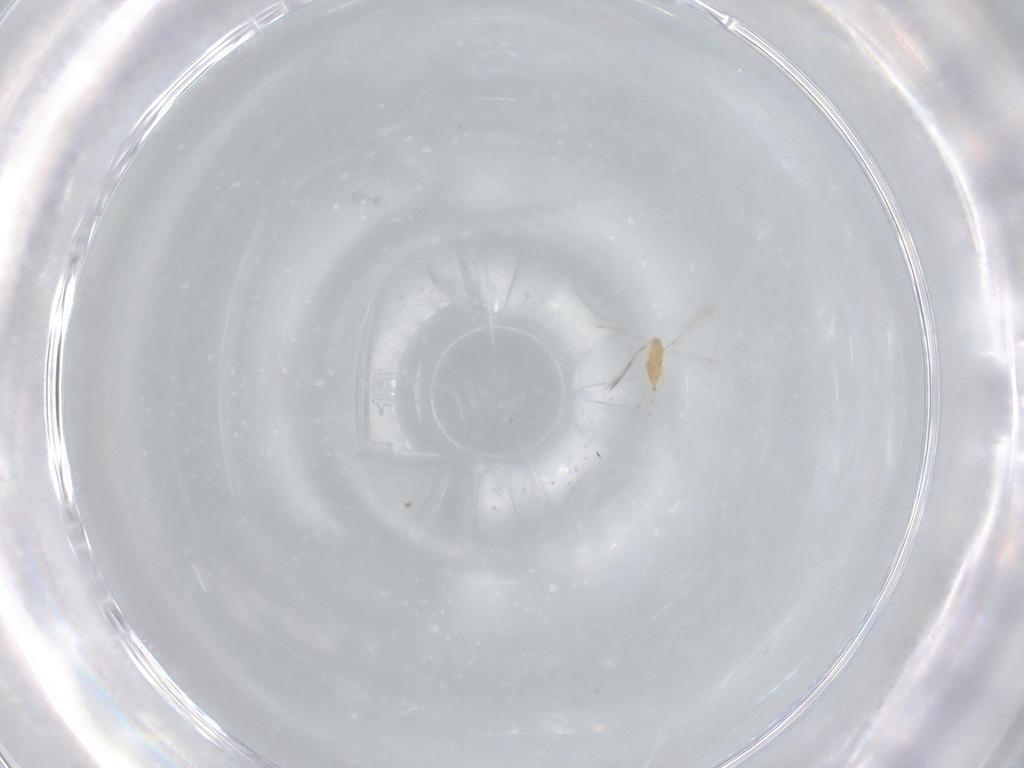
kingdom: Animalia
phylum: Arthropoda
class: Insecta
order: Hymenoptera
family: Mymaridae
